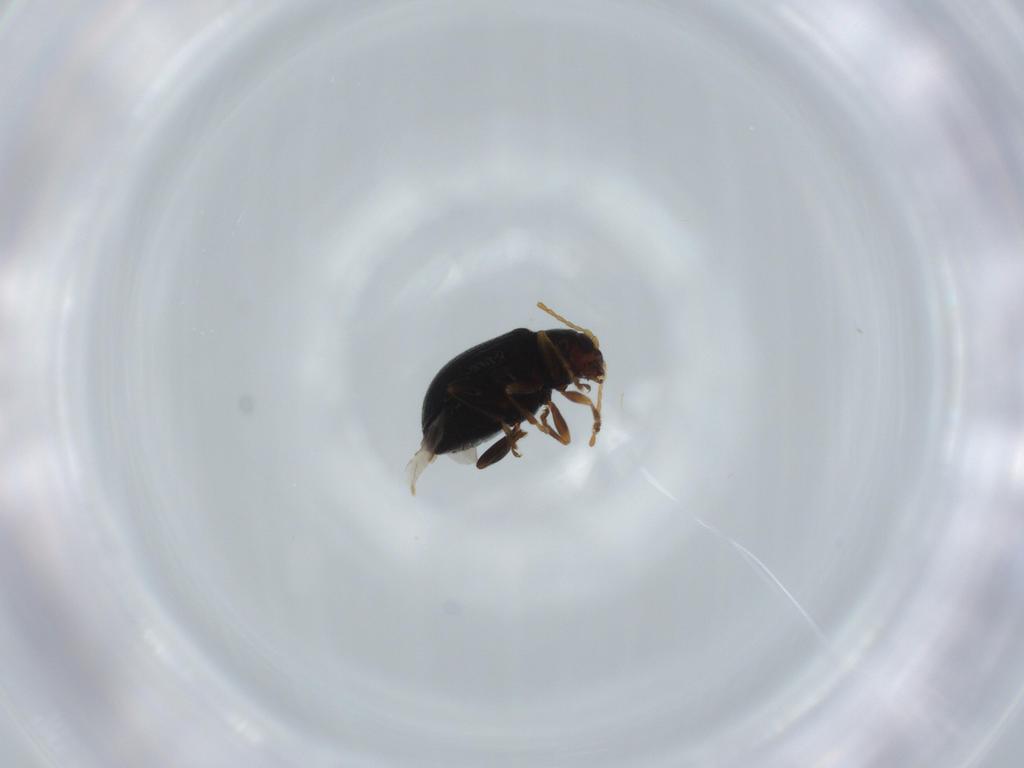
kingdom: Animalia
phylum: Arthropoda
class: Insecta
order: Coleoptera
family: Chrysomelidae
